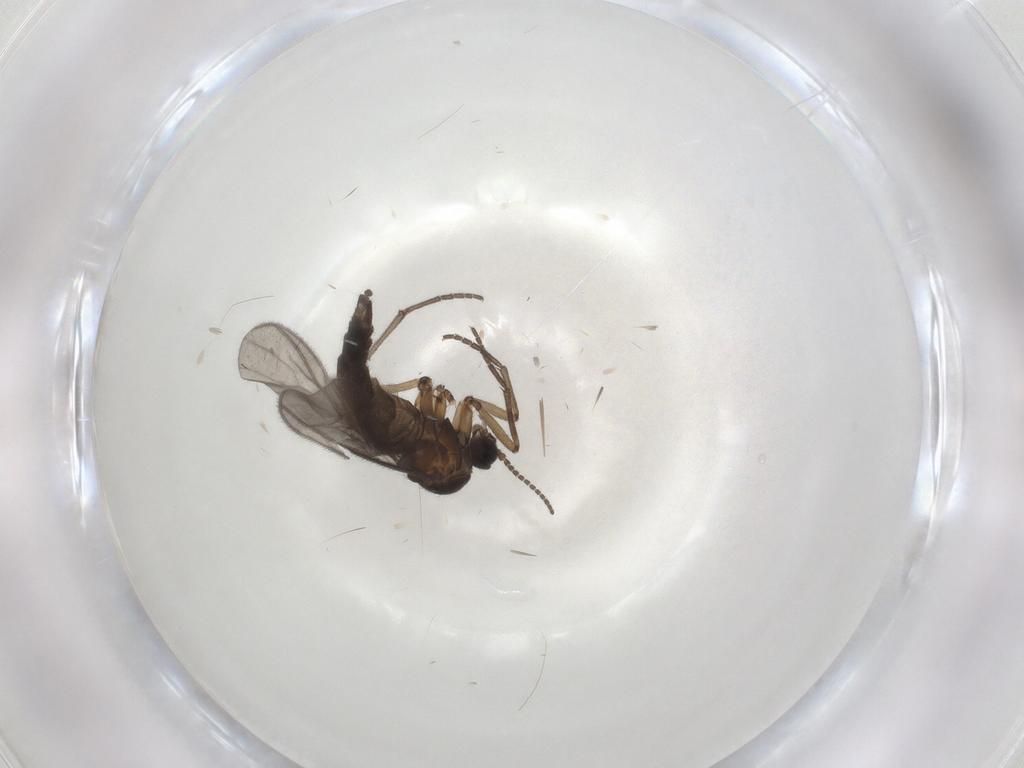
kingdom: Animalia
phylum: Arthropoda
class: Insecta
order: Diptera
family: Sciaridae
